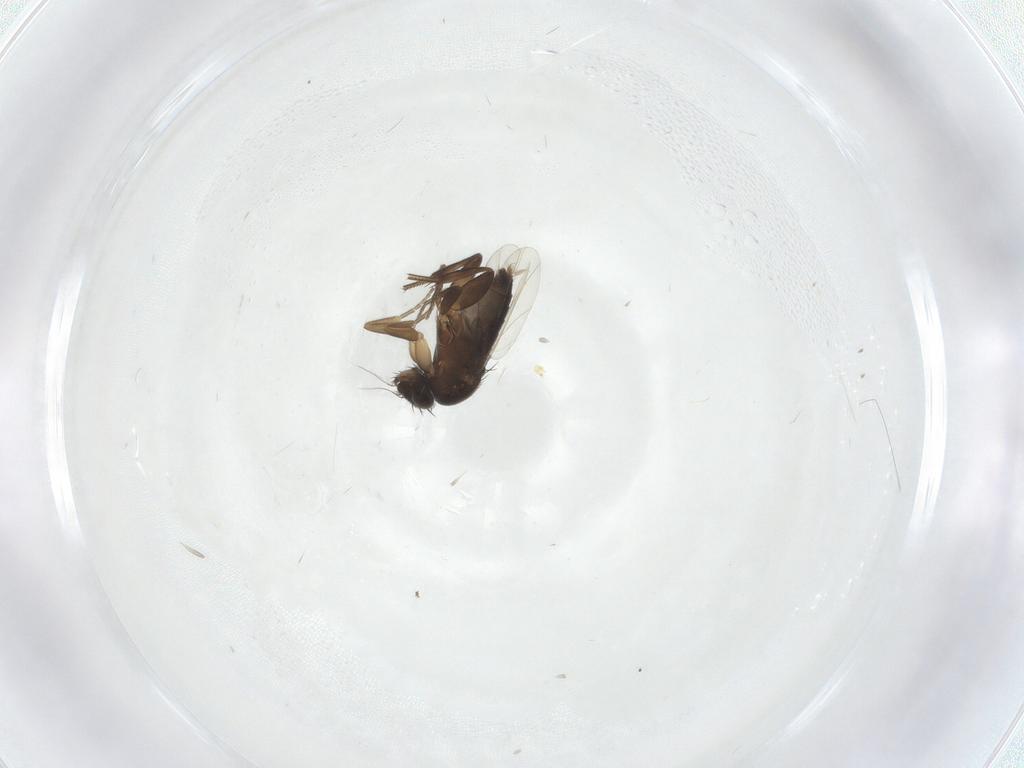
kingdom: Animalia
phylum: Arthropoda
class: Insecta
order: Diptera
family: Phoridae
